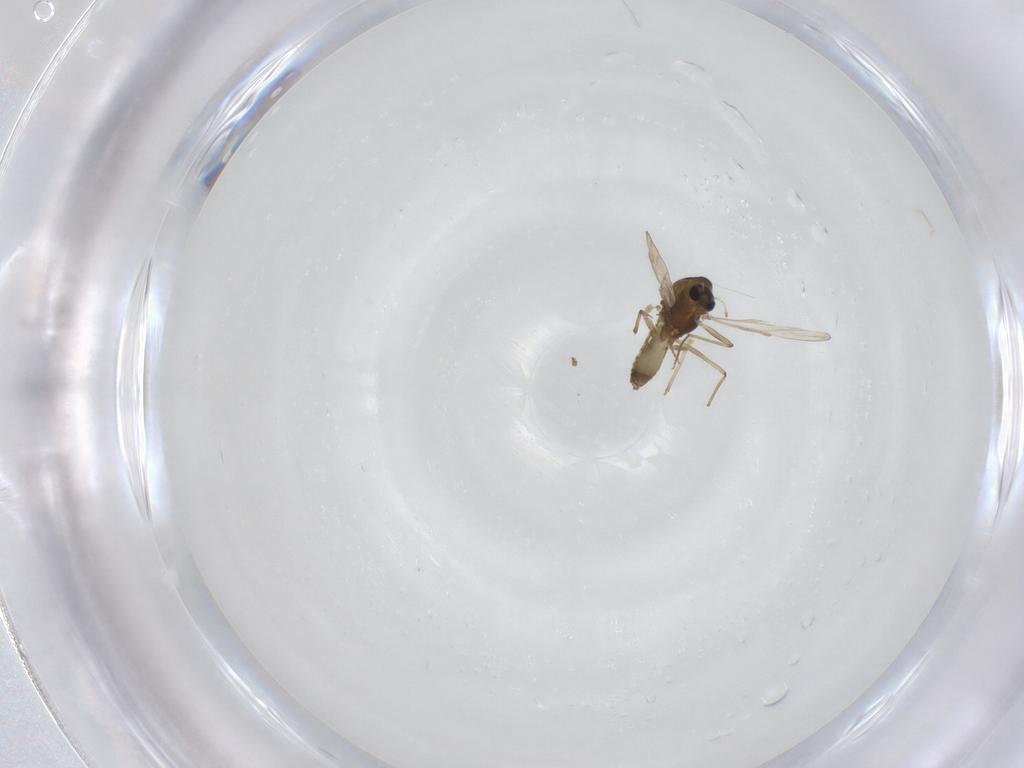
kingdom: Animalia
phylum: Arthropoda
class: Insecta
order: Diptera
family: Chironomidae
